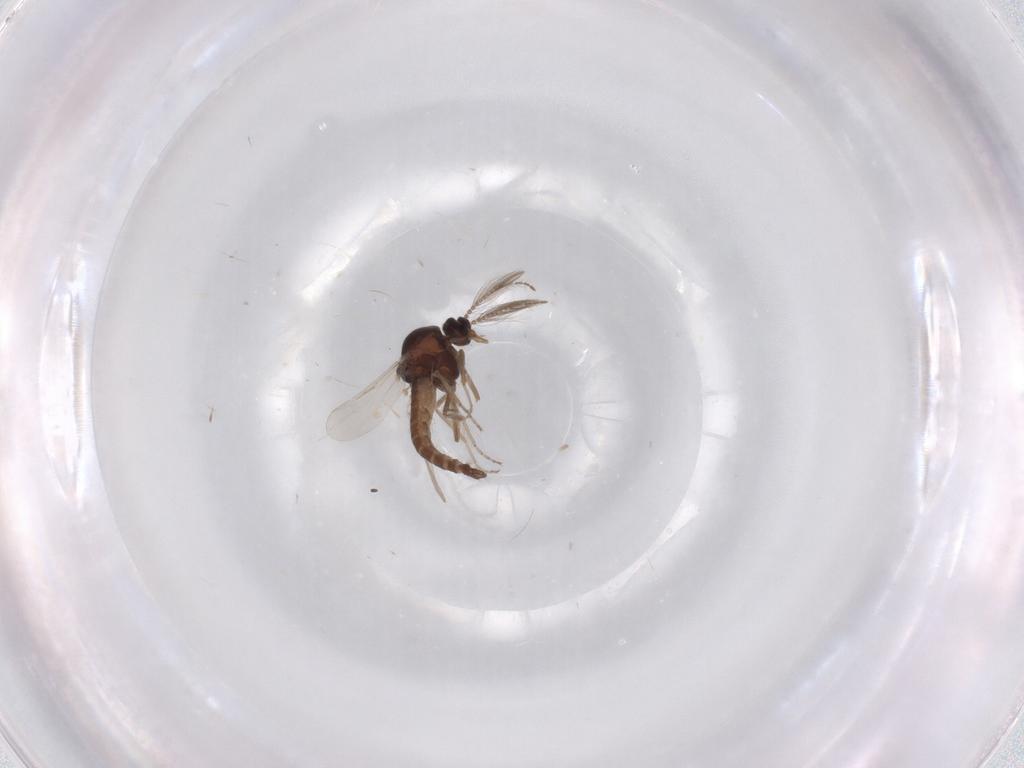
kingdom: Animalia
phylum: Arthropoda
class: Insecta
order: Diptera
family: Ceratopogonidae
